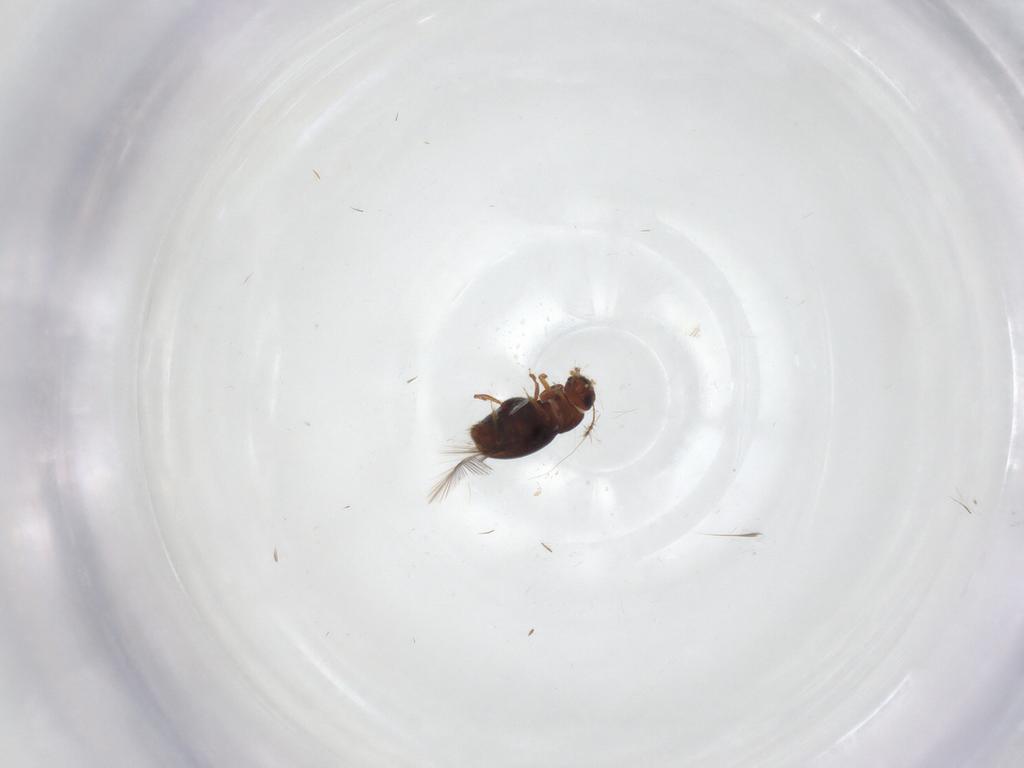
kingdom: Animalia
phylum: Arthropoda
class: Insecta
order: Coleoptera
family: Ptiliidae
